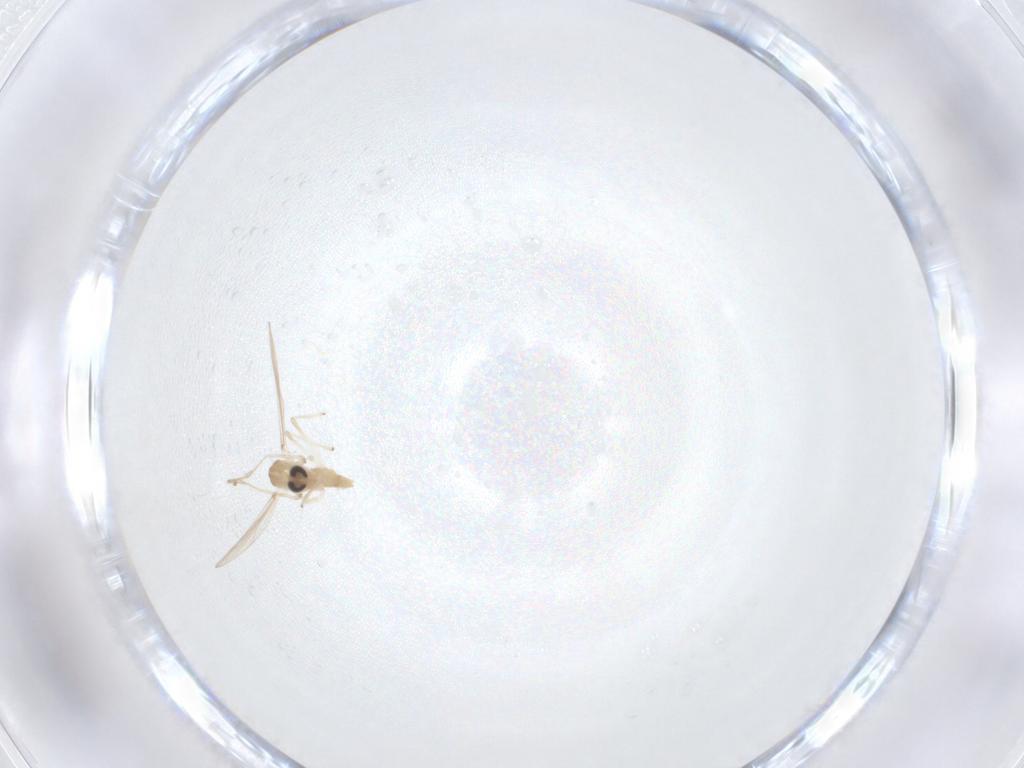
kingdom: Animalia
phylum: Arthropoda
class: Insecta
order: Diptera
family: Chironomidae
